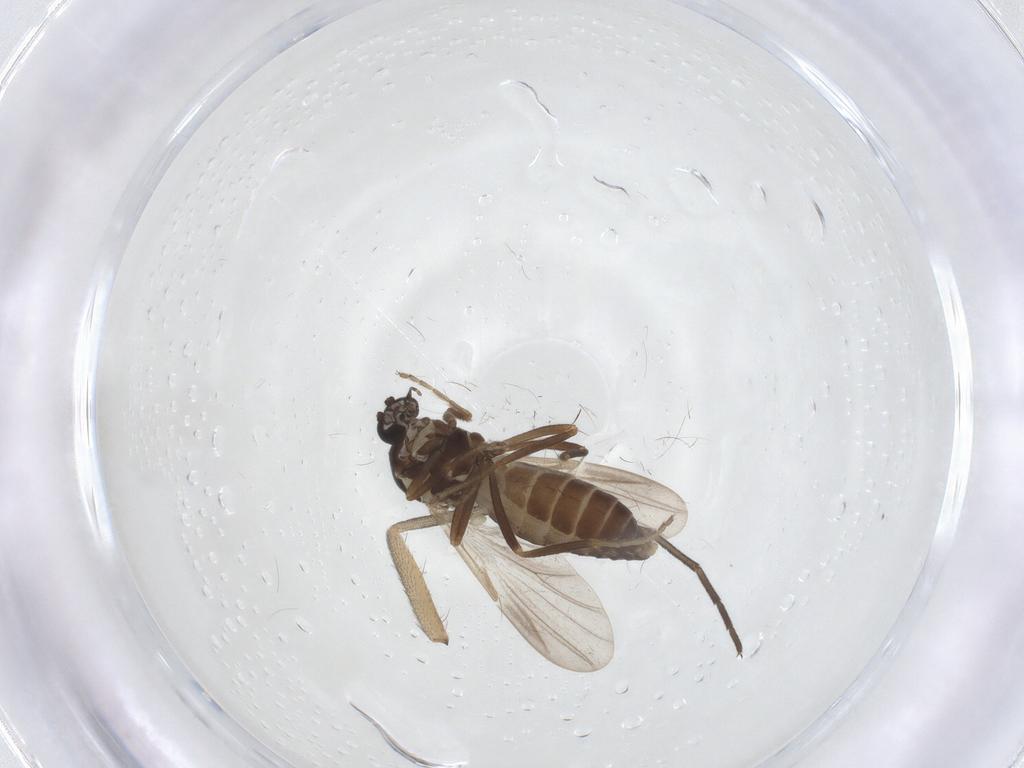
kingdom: Animalia
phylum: Arthropoda
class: Insecta
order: Diptera
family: Ceratopogonidae
